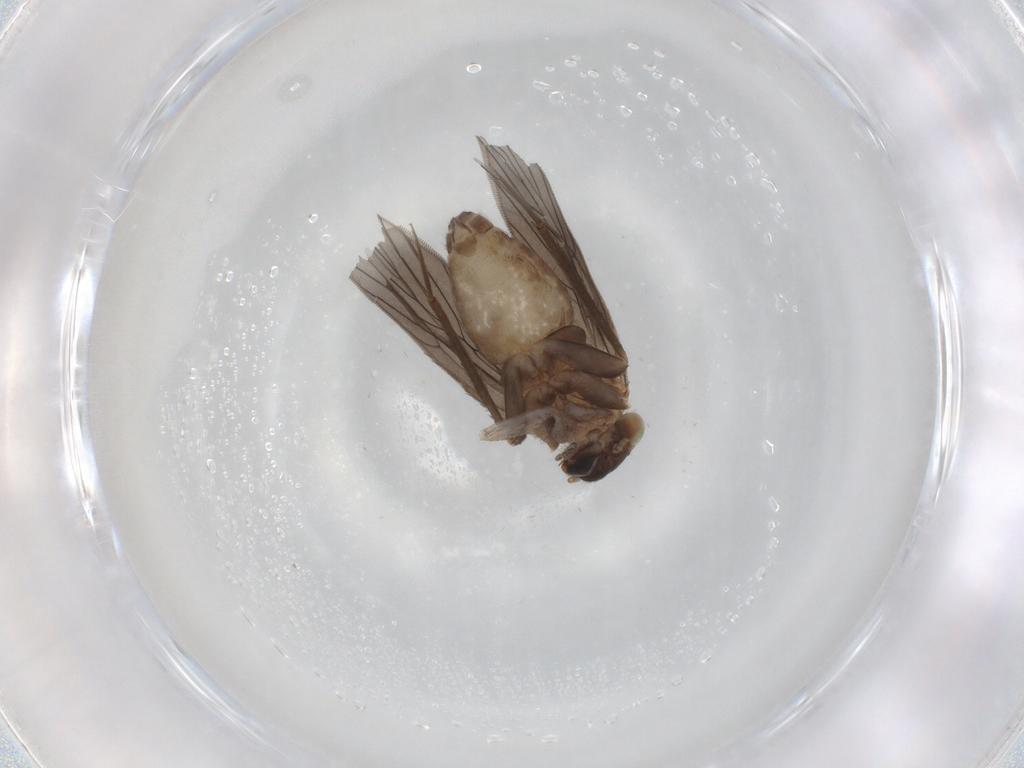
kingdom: Animalia
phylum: Arthropoda
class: Insecta
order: Psocodea
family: Lepidopsocidae
